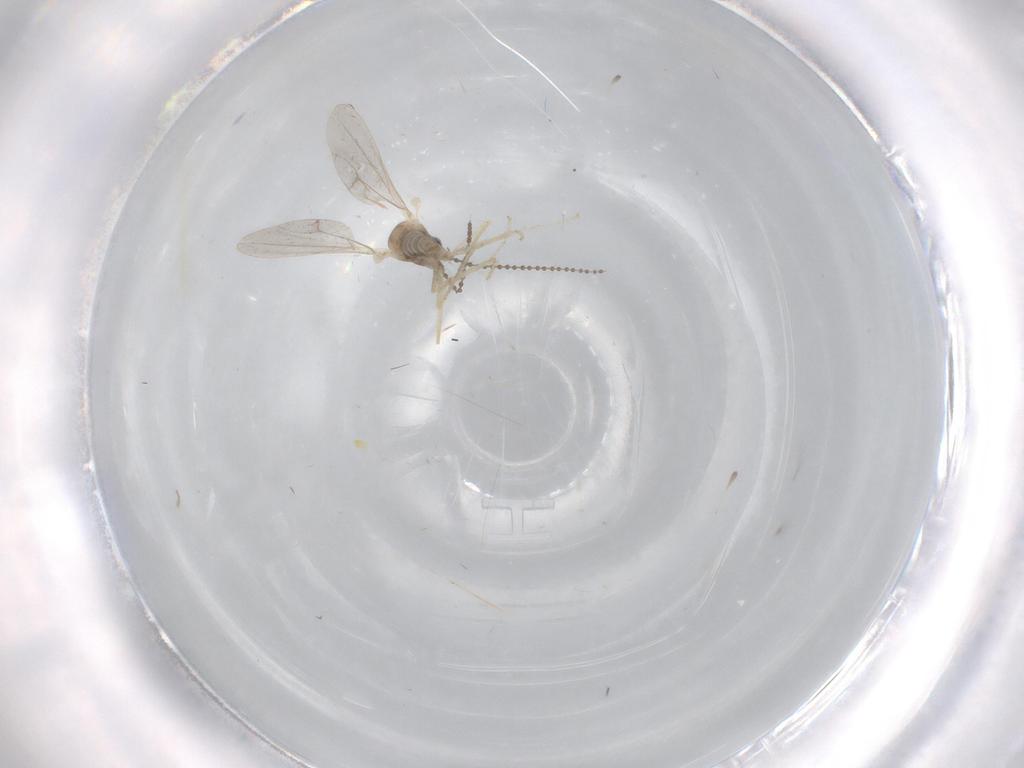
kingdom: Animalia
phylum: Arthropoda
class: Insecta
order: Diptera
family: Cecidomyiidae
